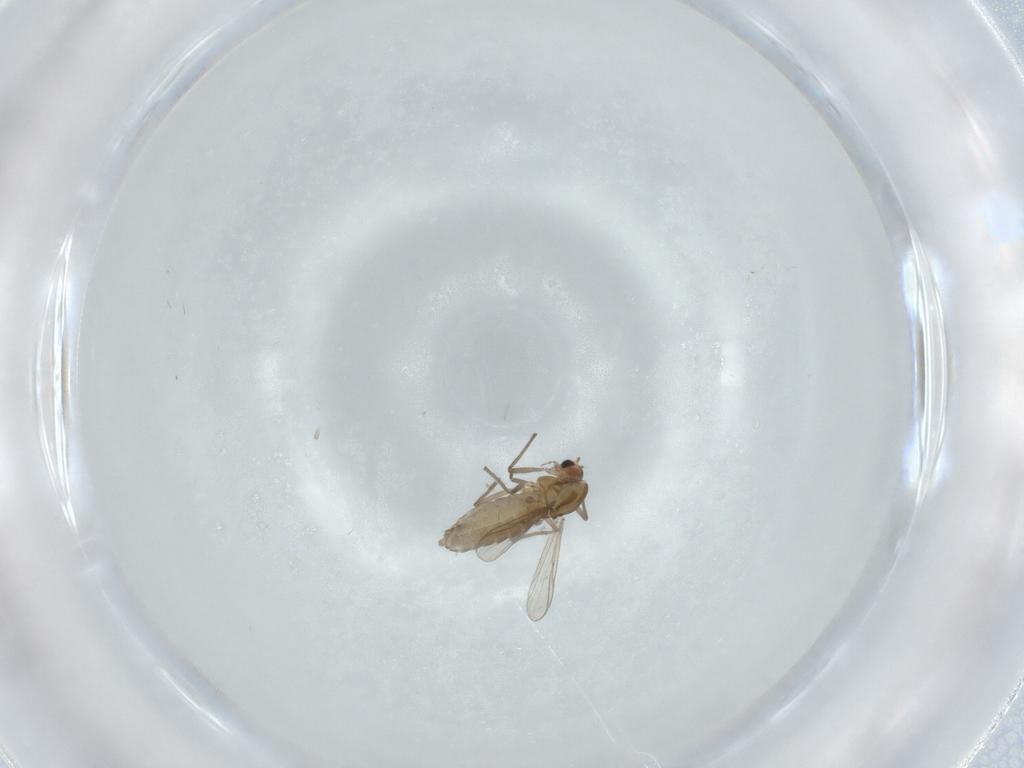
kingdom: Animalia
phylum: Arthropoda
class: Insecta
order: Diptera
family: Chironomidae
